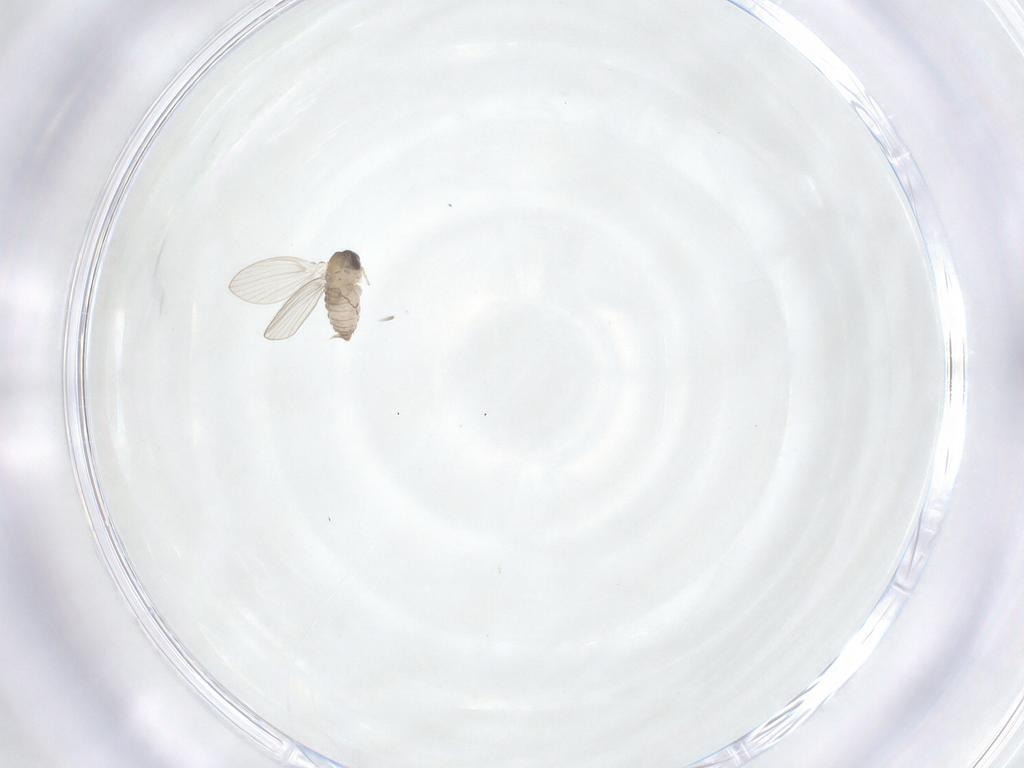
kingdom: Animalia
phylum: Arthropoda
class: Insecta
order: Diptera
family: Psychodidae
